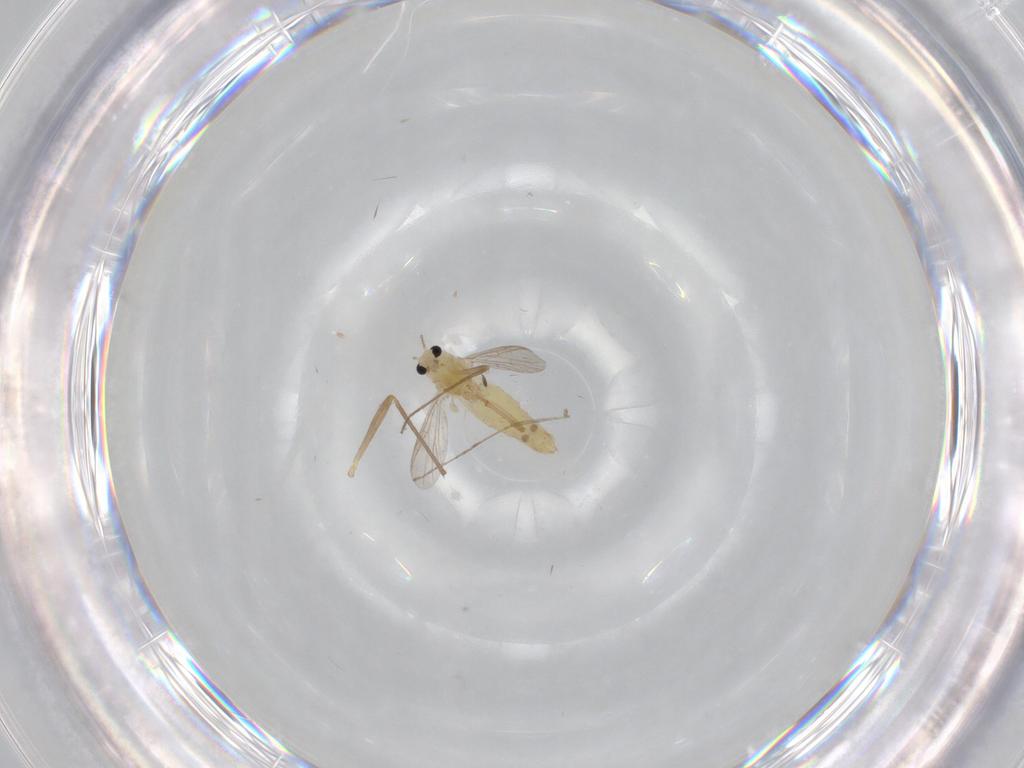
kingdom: Animalia
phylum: Arthropoda
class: Insecta
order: Diptera
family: Chironomidae
